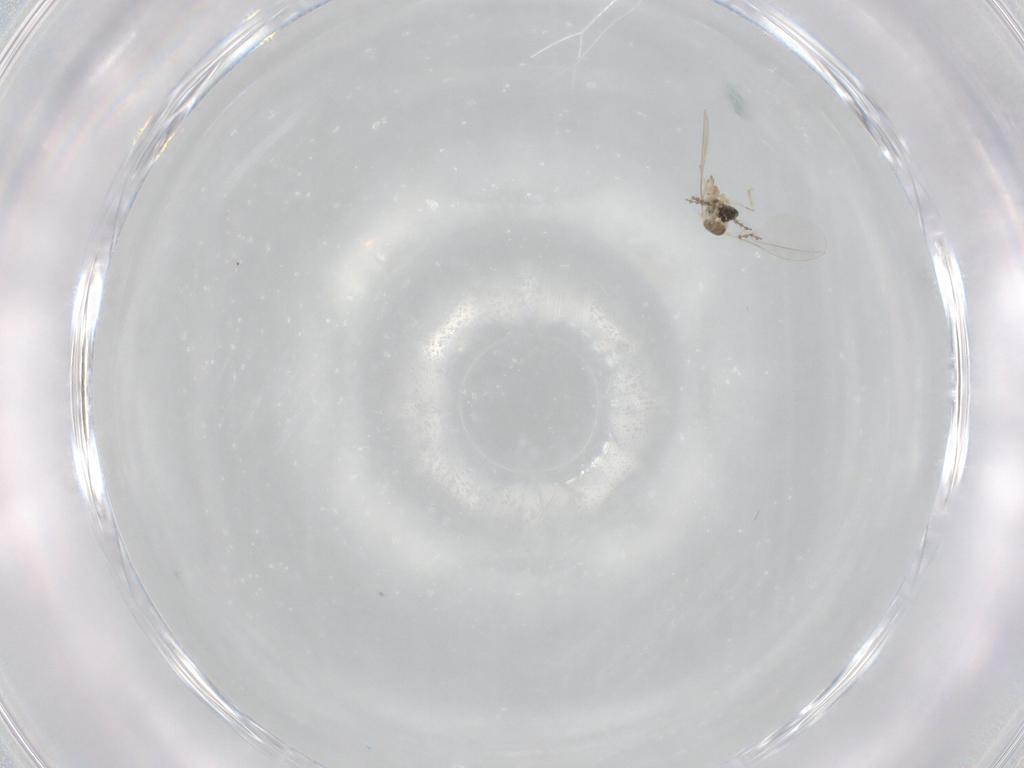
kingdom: Animalia
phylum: Arthropoda
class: Insecta
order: Diptera
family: Cecidomyiidae
